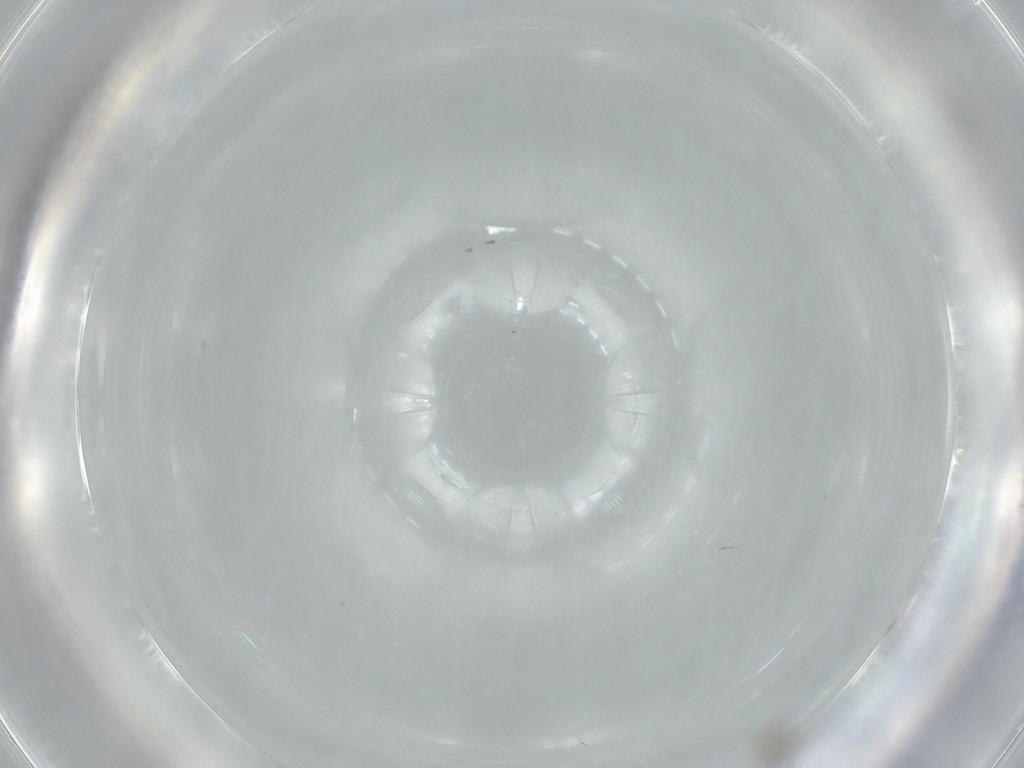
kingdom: Animalia
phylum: Arthropoda
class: Insecta
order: Diptera
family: Drosophilidae
